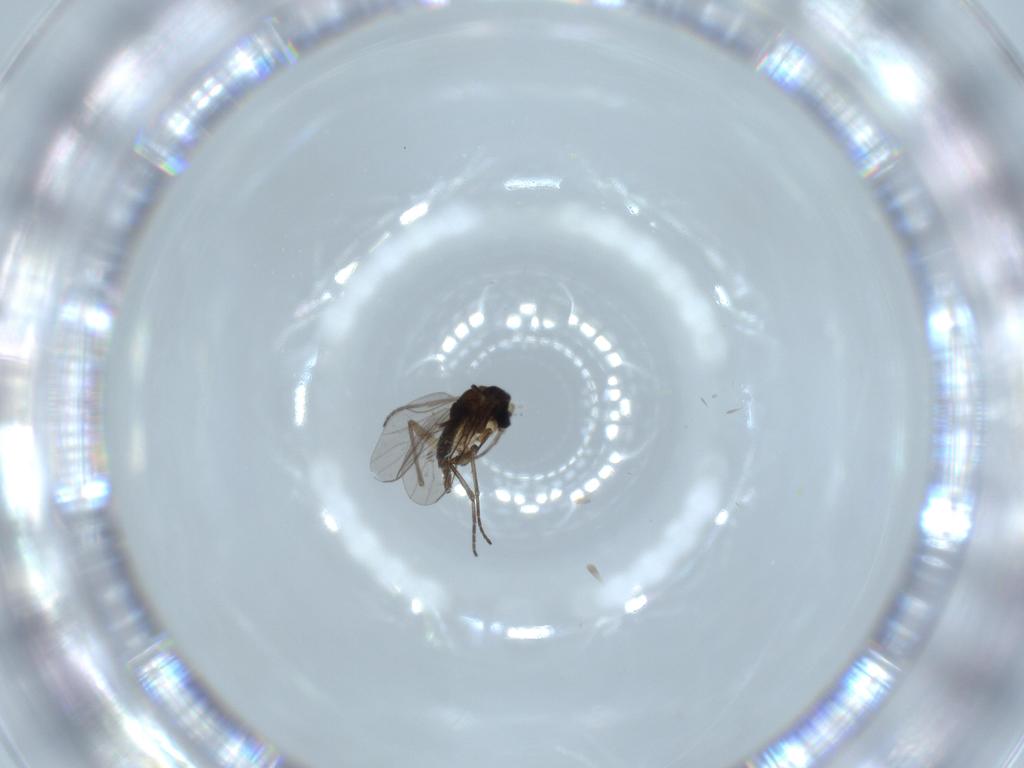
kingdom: Animalia
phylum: Arthropoda
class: Insecta
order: Diptera
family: Sciaridae
